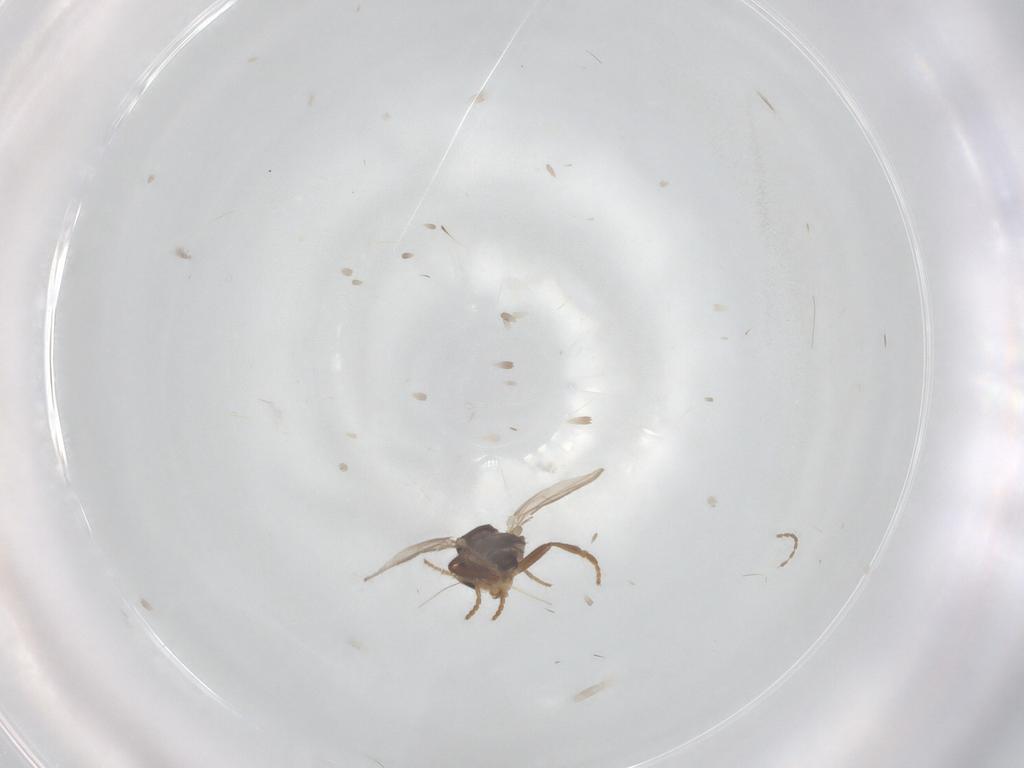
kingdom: Animalia
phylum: Arthropoda
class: Insecta
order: Diptera
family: Sphaeroceridae
